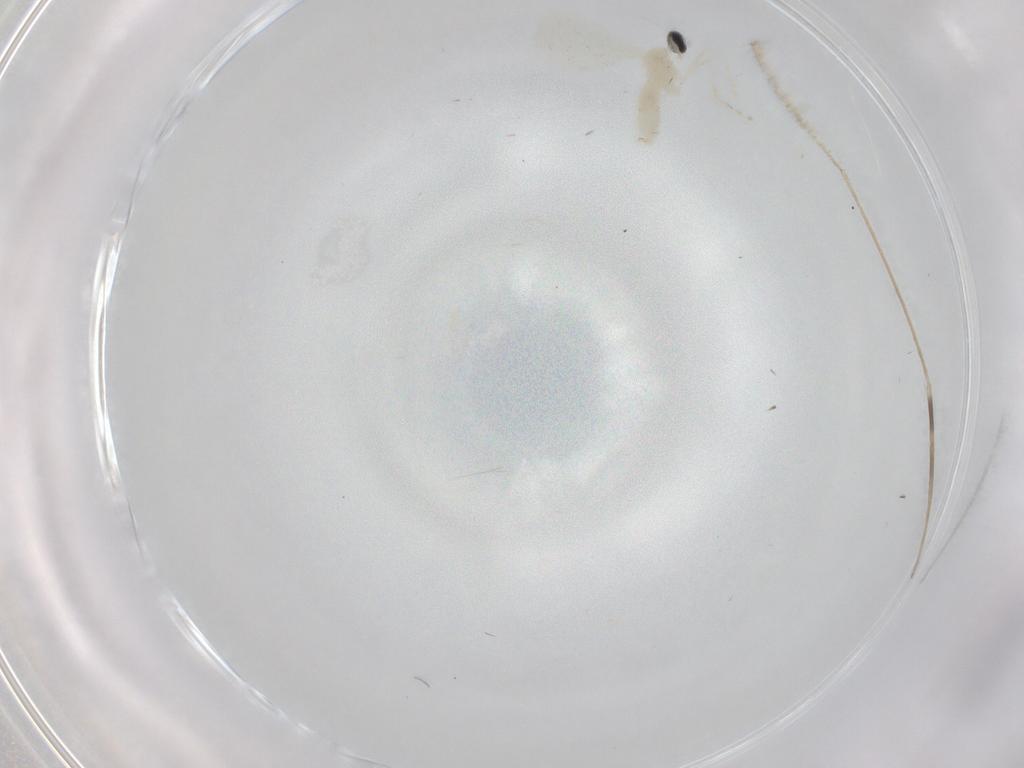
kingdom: Animalia
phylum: Arthropoda
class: Insecta
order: Diptera
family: Cecidomyiidae
